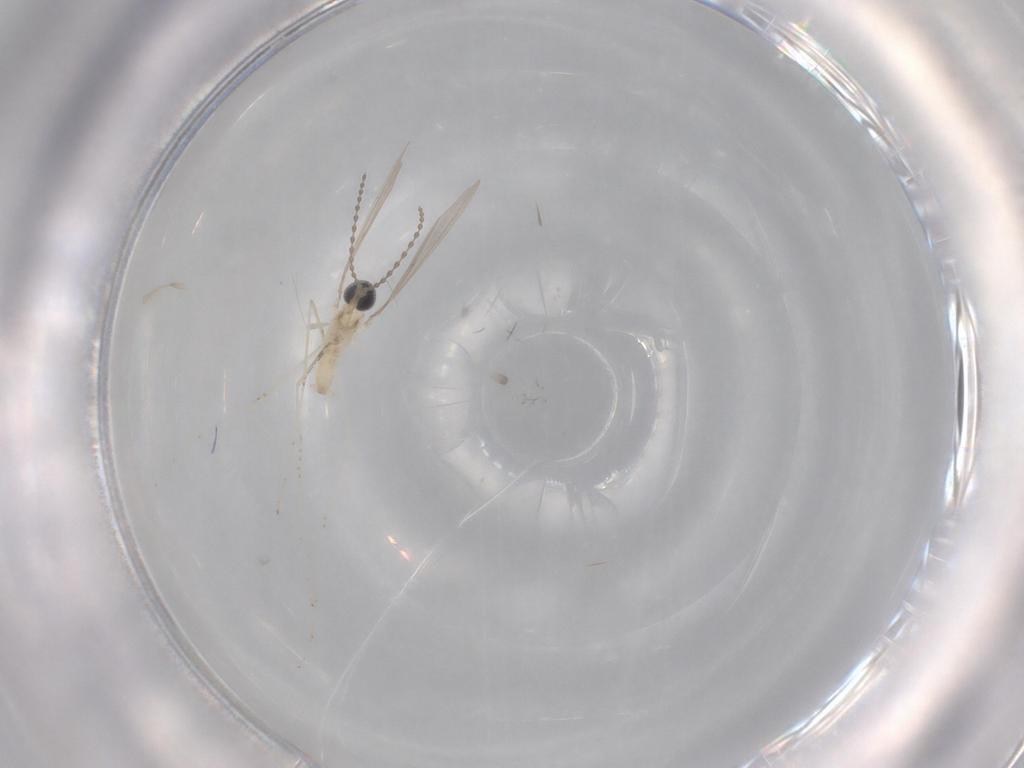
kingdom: Animalia
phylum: Arthropoda
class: Insecta
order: Diptera
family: Cecidomyiidae
